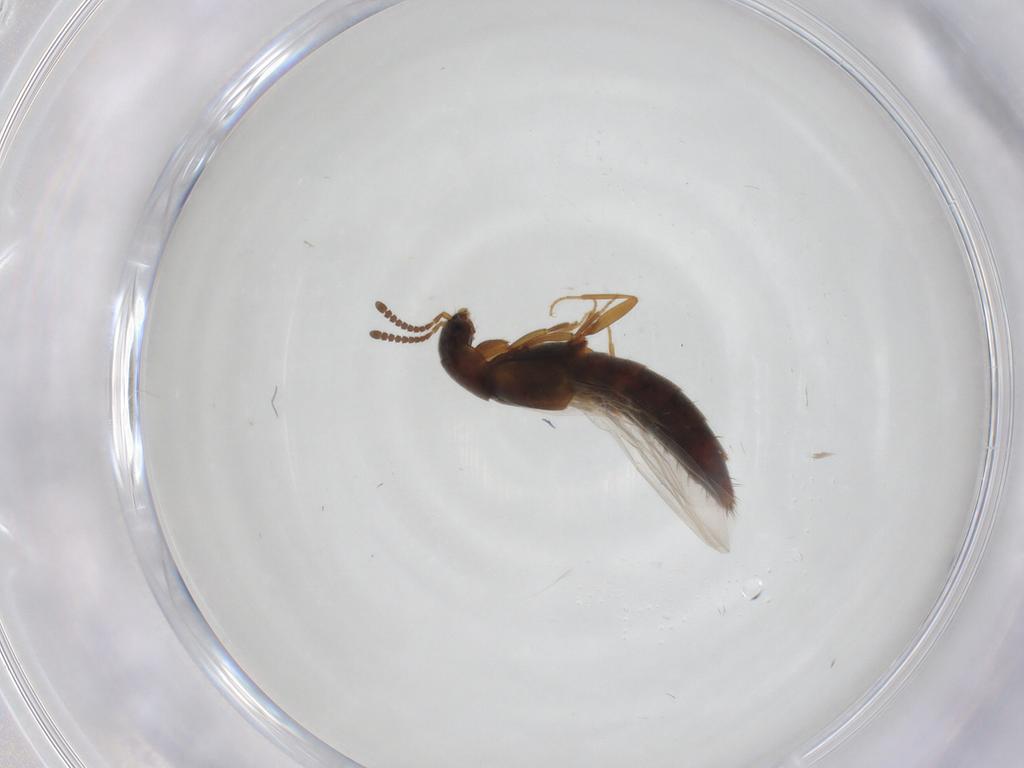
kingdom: Animalia
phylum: Arthropoda
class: Insecta
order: Coleoptera
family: Staphylinidae
